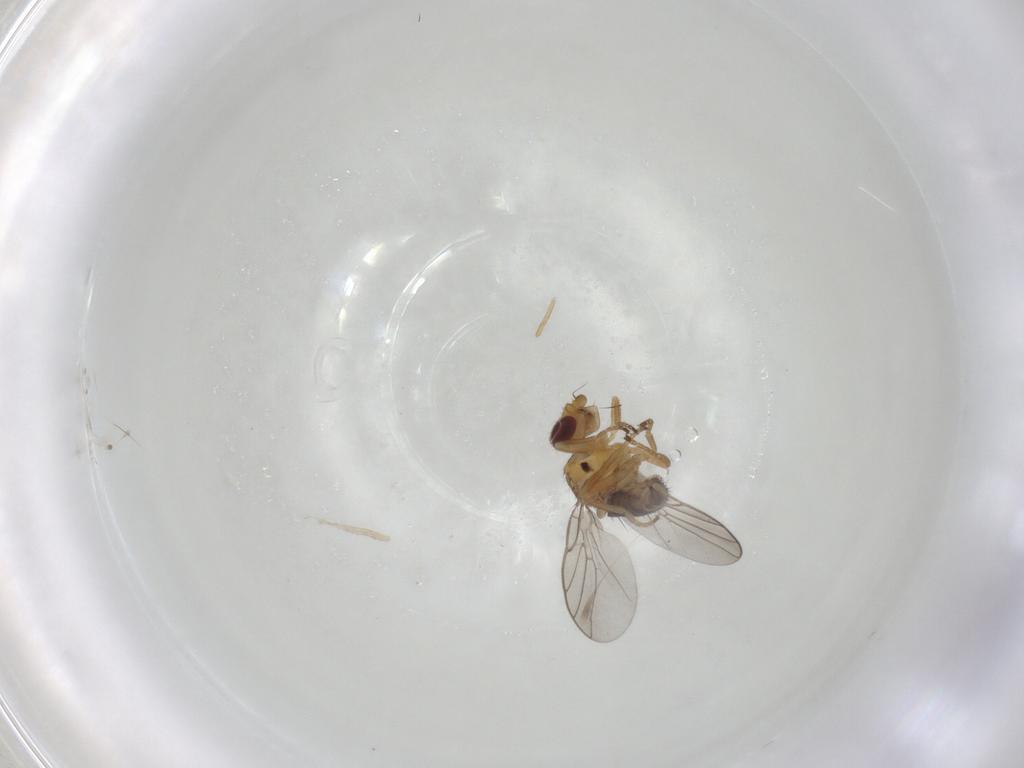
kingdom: Animalia
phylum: Arthropoda
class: Insecta
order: Diptera
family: Chloropidae
